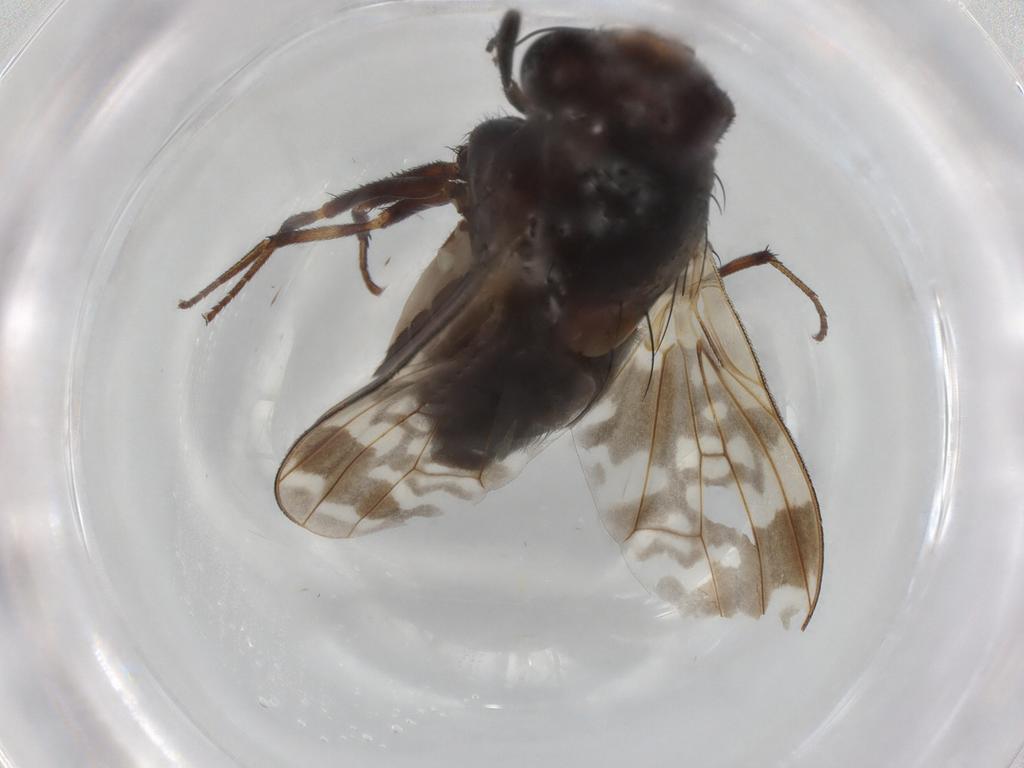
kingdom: Animalia
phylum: Arthropoda
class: Insecta
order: Diptera
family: Lauxaniidae
